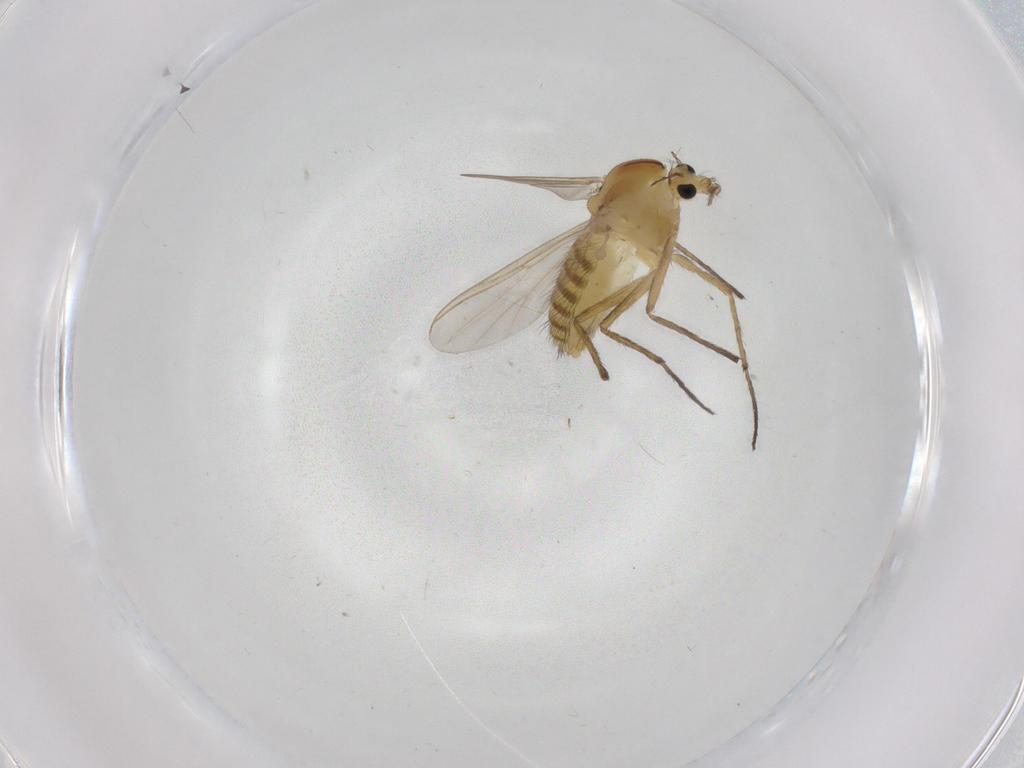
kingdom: Animalia
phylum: Arthropoda
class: Insecta
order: Diptera
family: Chironomidae
